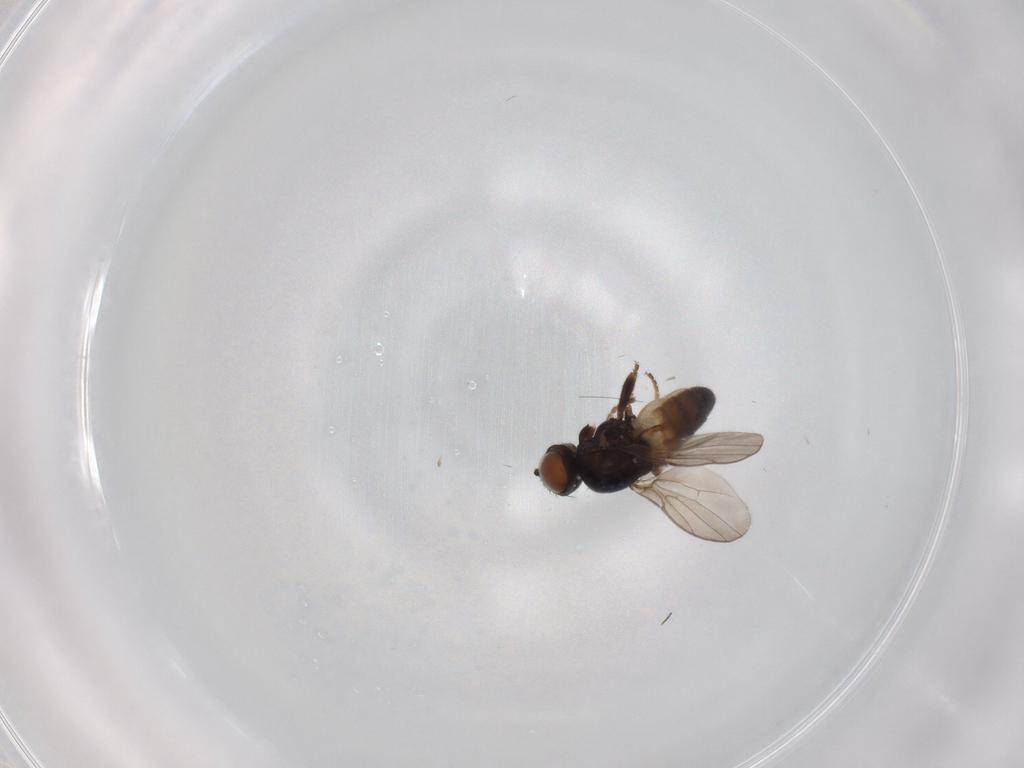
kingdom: Animalia
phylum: Arthropoda
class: Insecta
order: Diptera
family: Chloropidae
